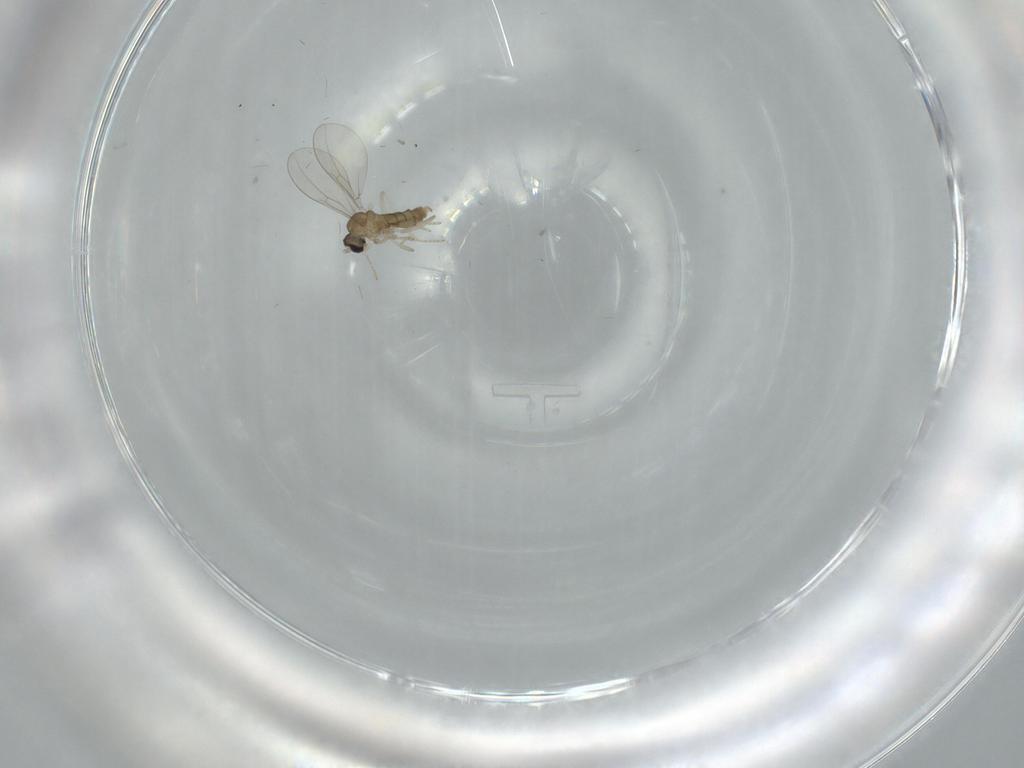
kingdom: Animalia
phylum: Arthropoda
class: Insecta
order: Diptera
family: Cecidomyiidae
